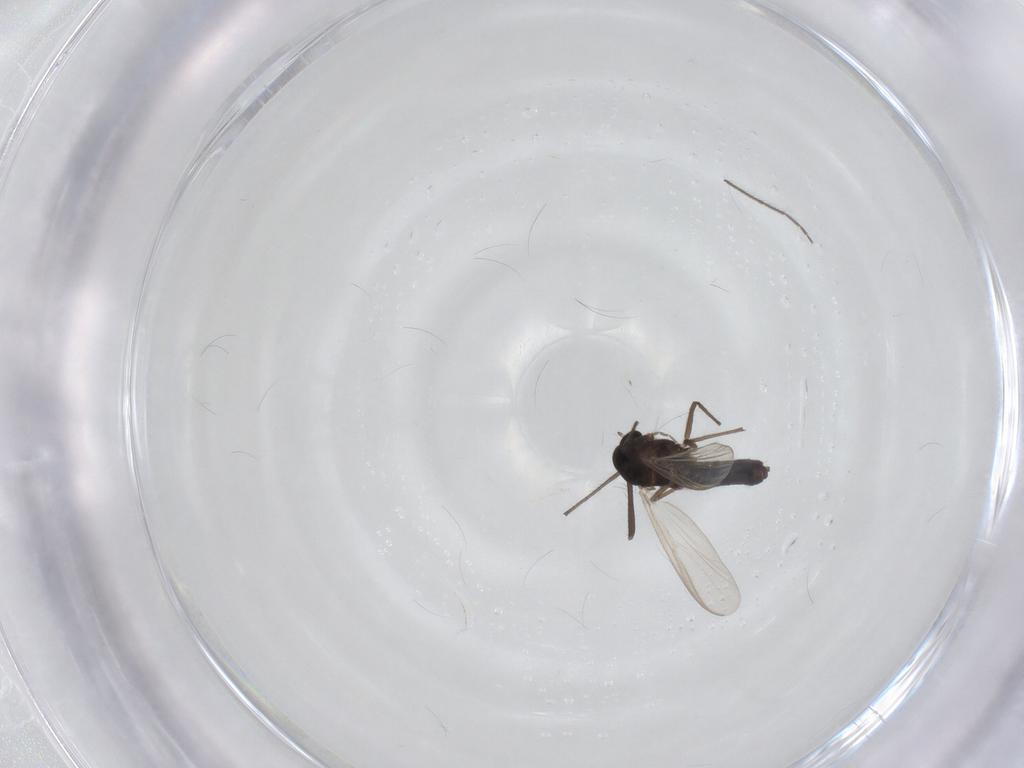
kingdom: Animalia
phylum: Arthropoda
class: Insecta
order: Diptera
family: Chironomidae
